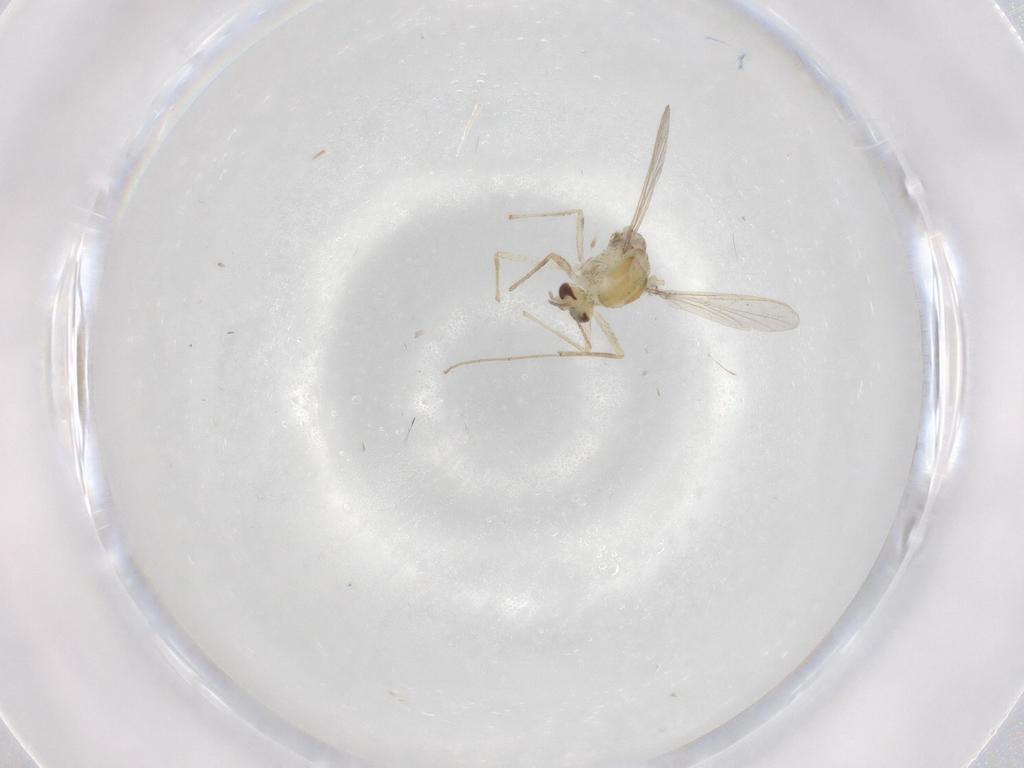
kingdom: Animalia
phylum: Arthropoda
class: Insecta
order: Diptera
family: Chironomidae
